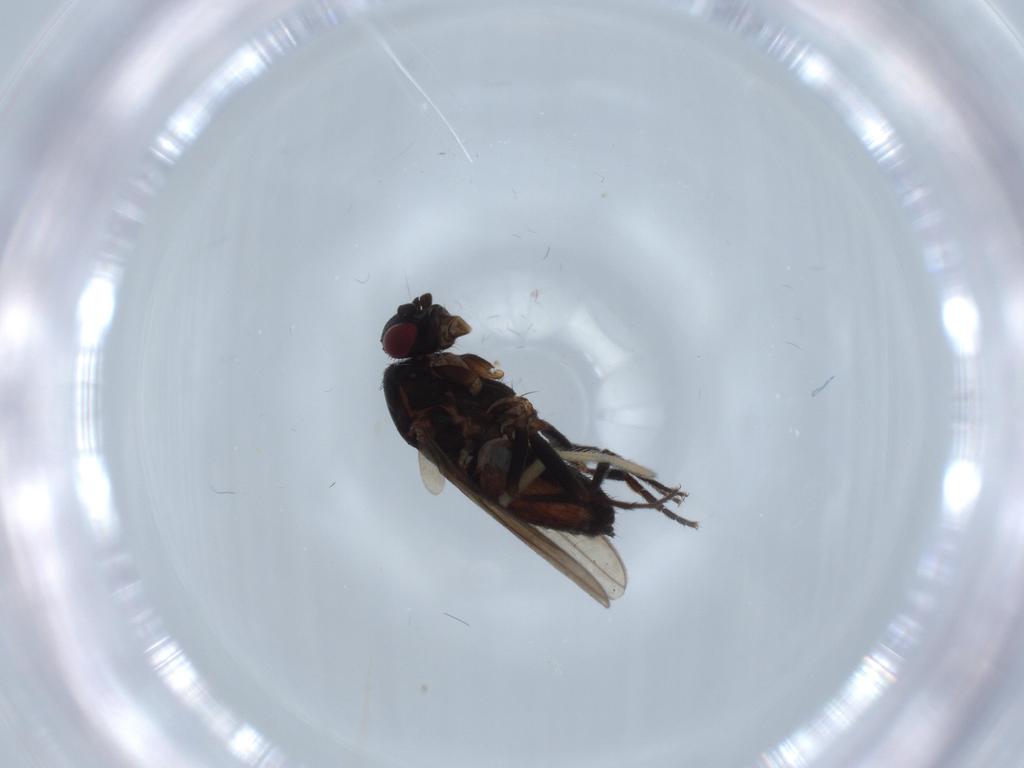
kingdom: Animalia
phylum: Arthropoda
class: Insecta
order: Diptera
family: Sphaeroceridae
